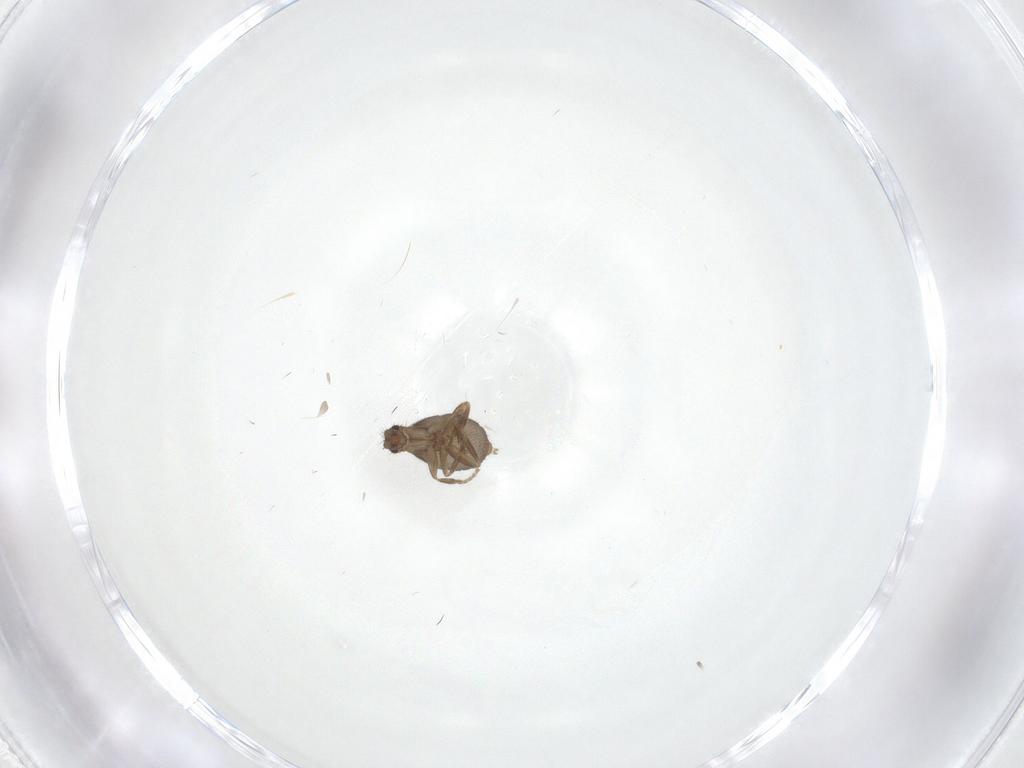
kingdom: Animalia
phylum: Arthropoda
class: Insecta
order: Diptera
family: Phoridae
